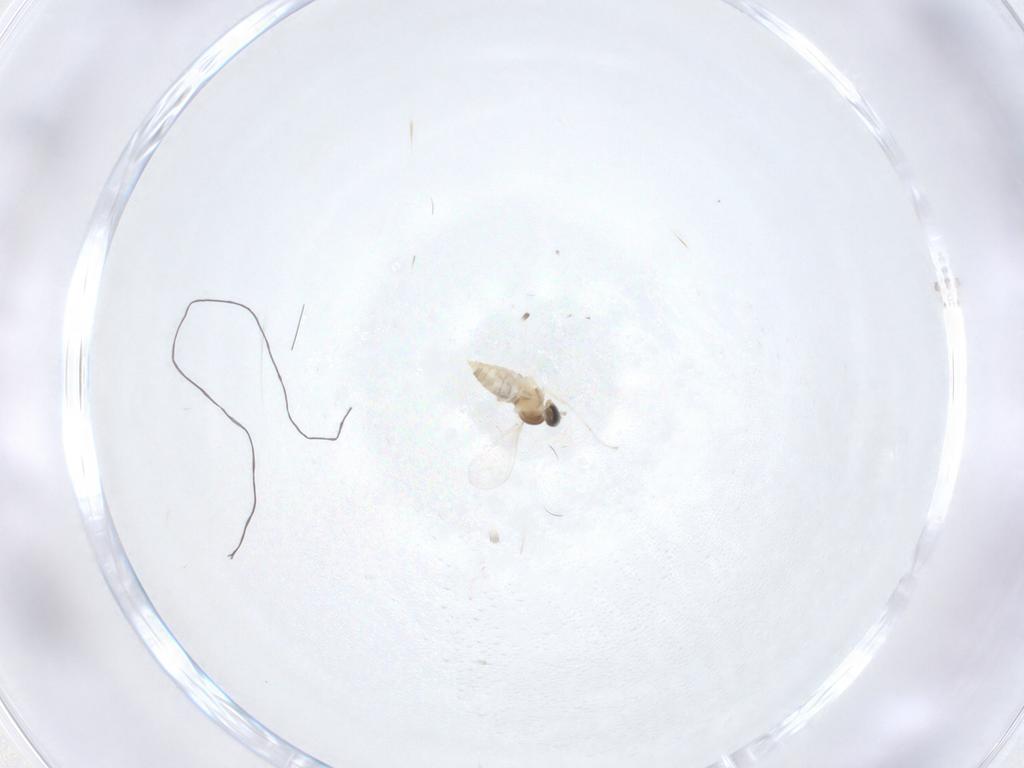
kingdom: Animalia
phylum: Arthropoda
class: Insecta
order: Diptera
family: Cecidomyiidae
